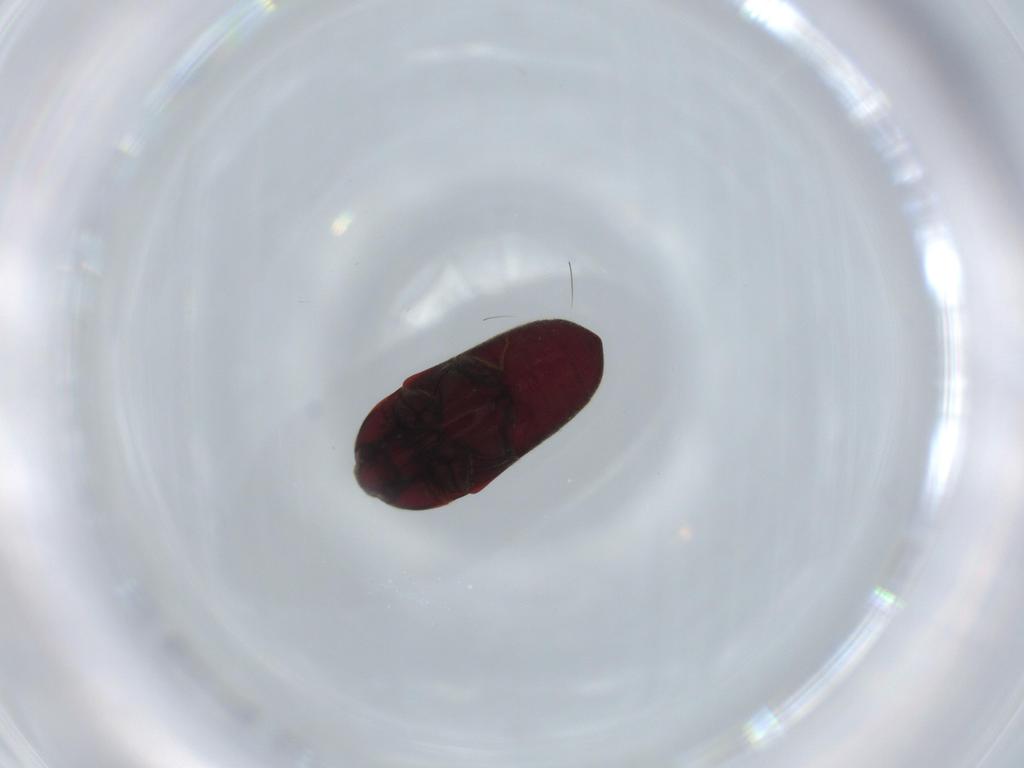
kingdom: Animalia
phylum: Arthropoda
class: Insecta
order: Coleoptera
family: Throscidae
